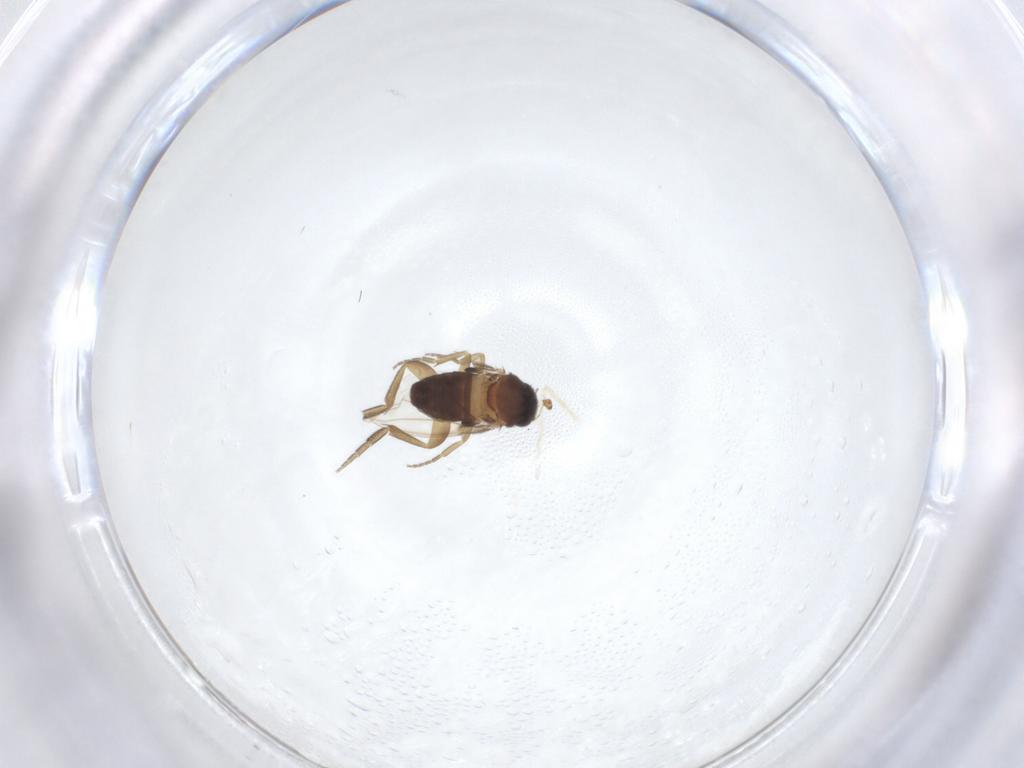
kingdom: Animalia
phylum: Arthropoda
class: Insecta
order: Diptera
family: Phoridae
